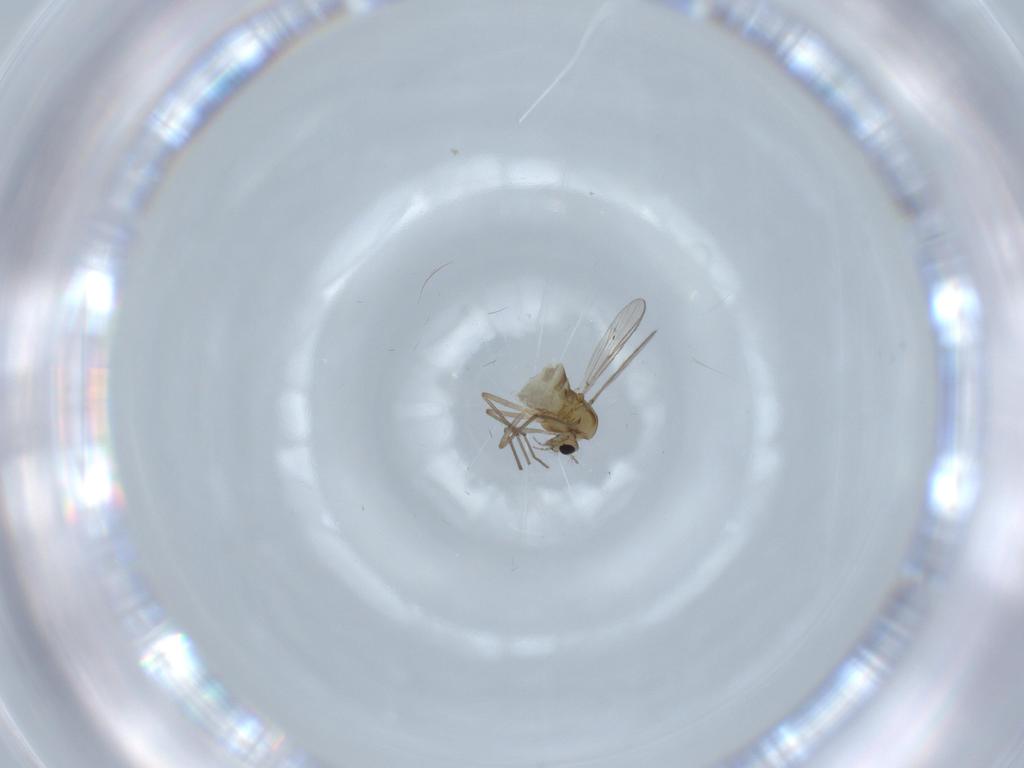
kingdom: Animalia
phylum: Arthropoda
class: Insecta
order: Diptera
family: Chironomidae
